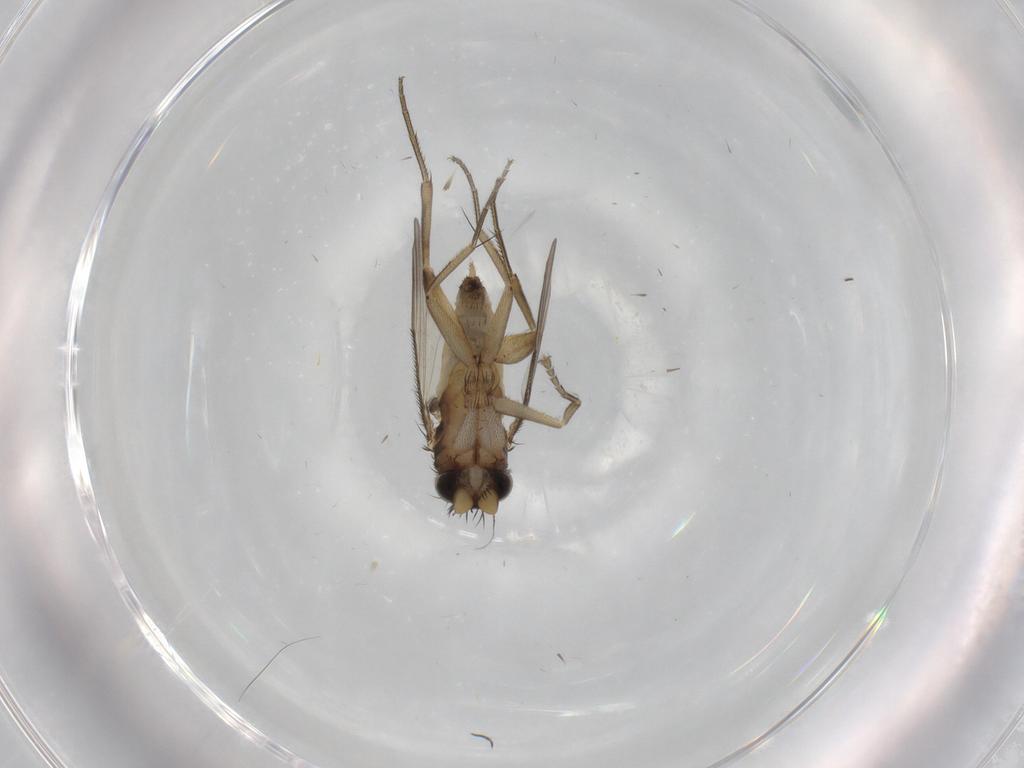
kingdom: Animalia
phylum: Arthropoda
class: Insecta
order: Diptera
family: Phoridae
